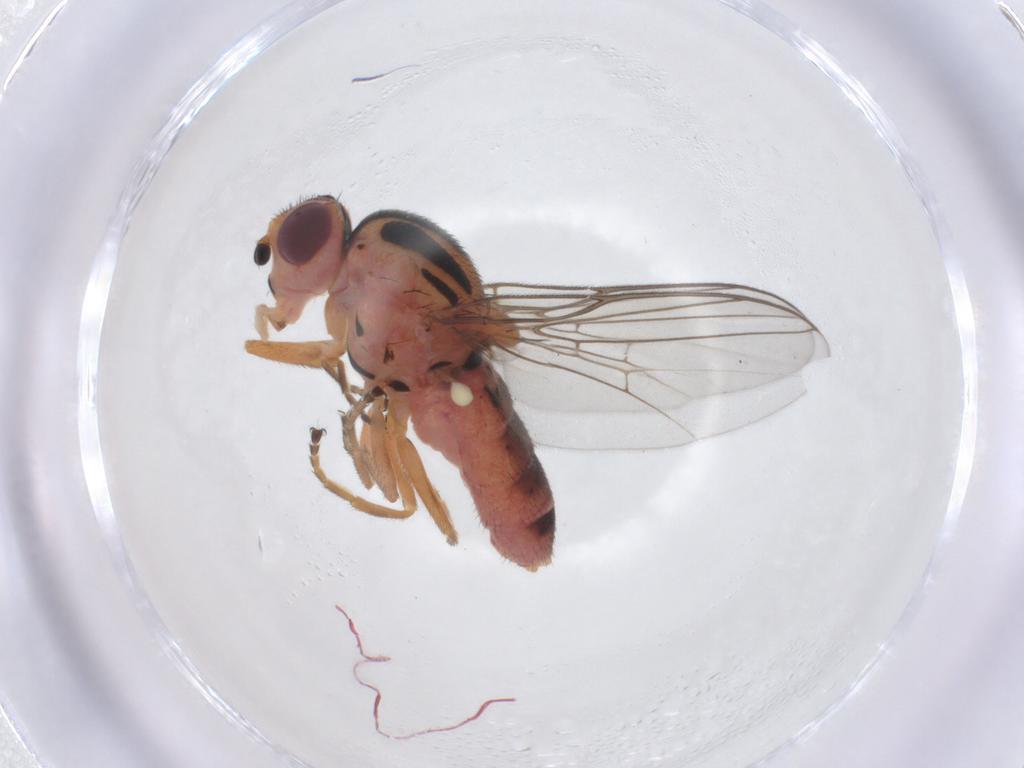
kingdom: Animalia
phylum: Arthropoda
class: Insecta
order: Diptera
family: Chloropidae
